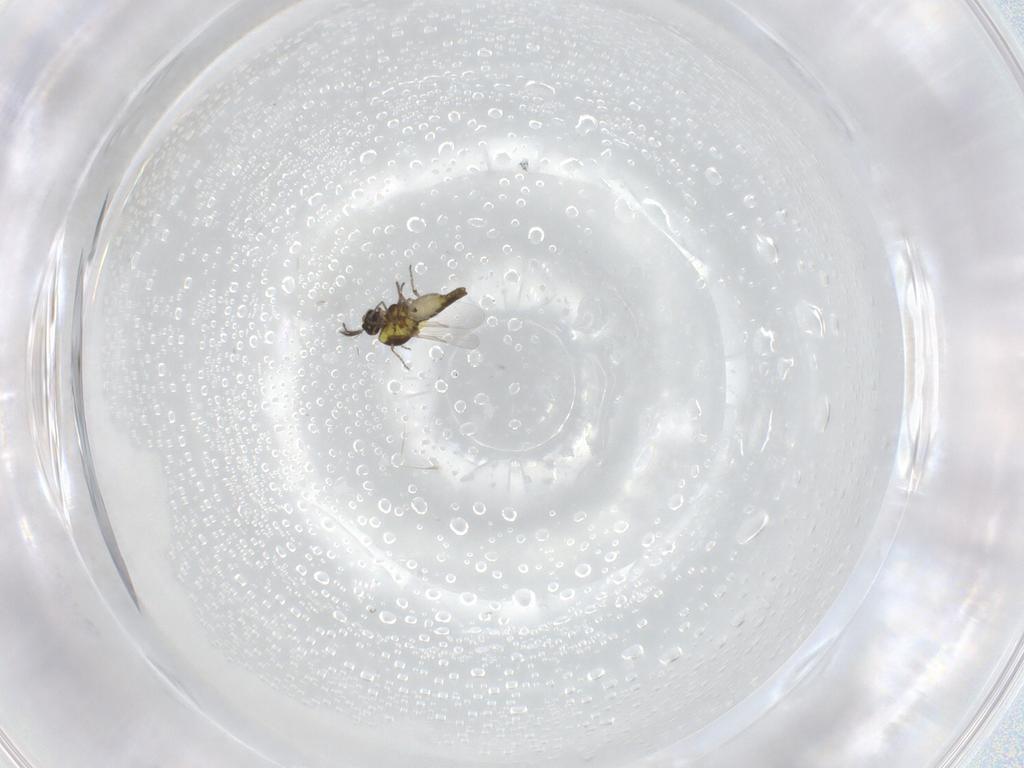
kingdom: Animalia
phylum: Arthropoda
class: Insecta
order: Diptera
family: Ceratopogonidae
